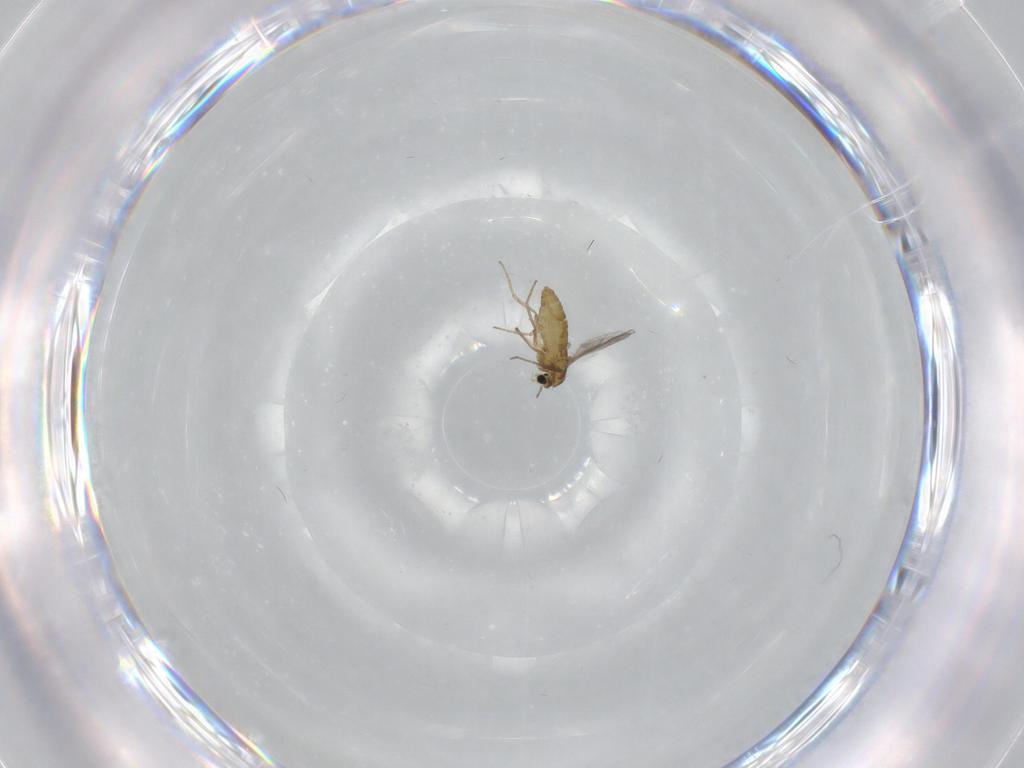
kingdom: Animalia
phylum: Arthropoda
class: Insecta
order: Diptera
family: Chironomidae
